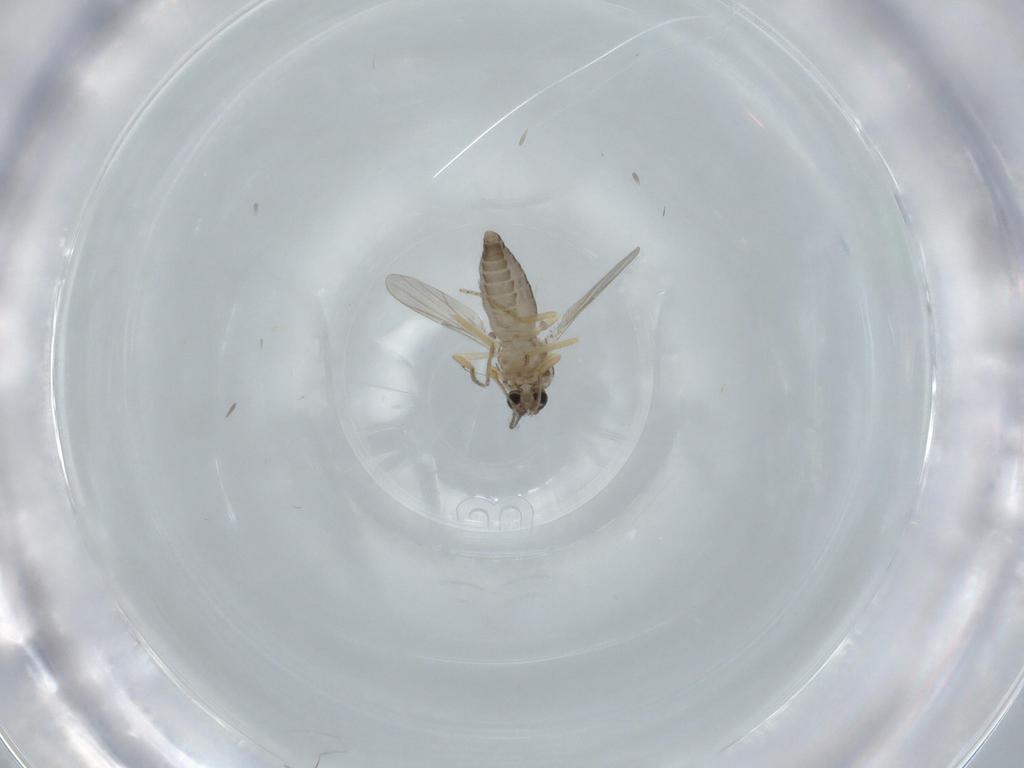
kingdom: Animalia
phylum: Arthropoda
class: Insecta
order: Diptera
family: Ceratopogonidae
